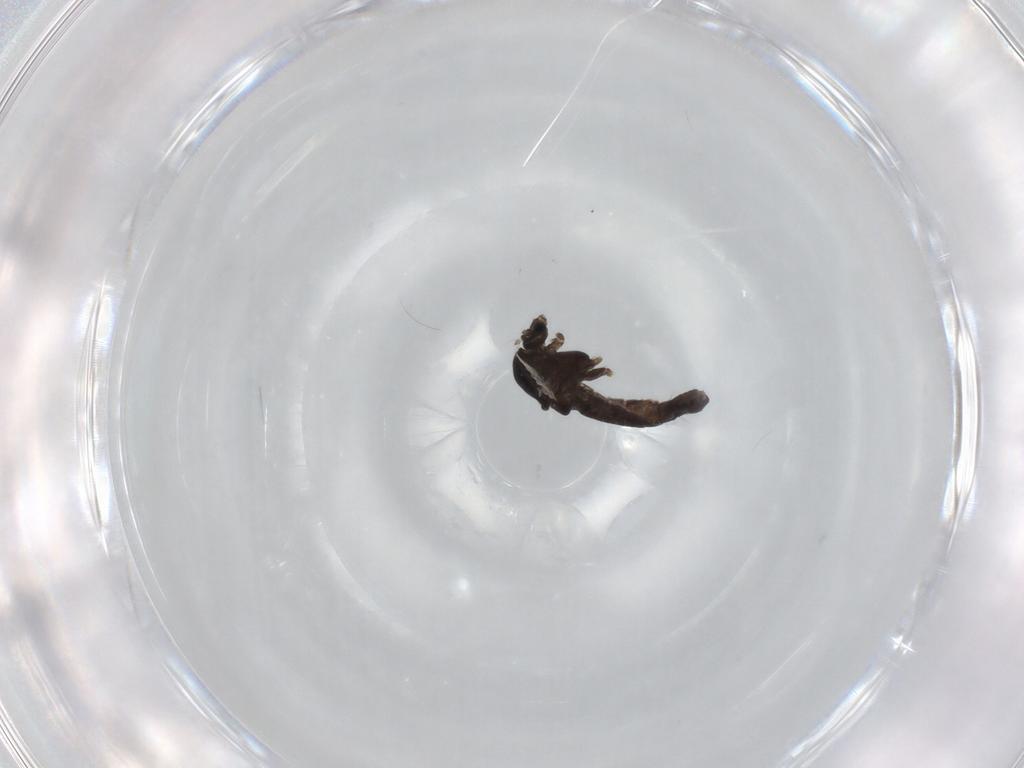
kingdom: Animalia
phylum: Arthropoda
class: Insecta
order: Diptera
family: Chironomidae
